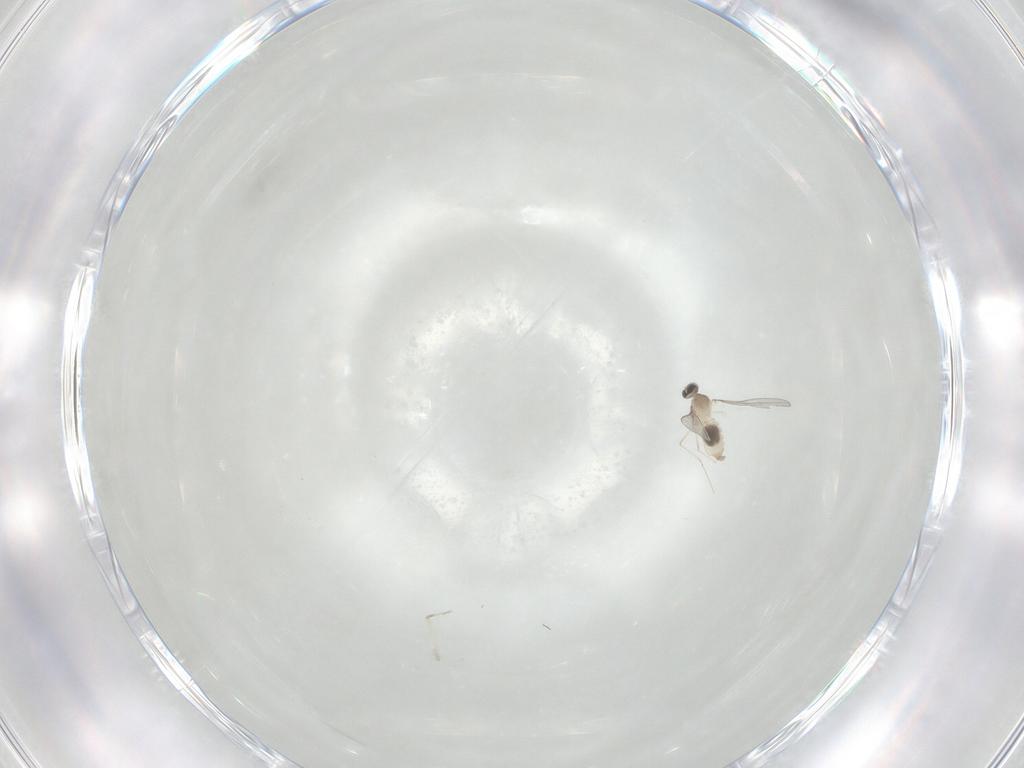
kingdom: Animalia
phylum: Arthropoda
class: Insecta
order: Diptera
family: Cecidomyiidae
